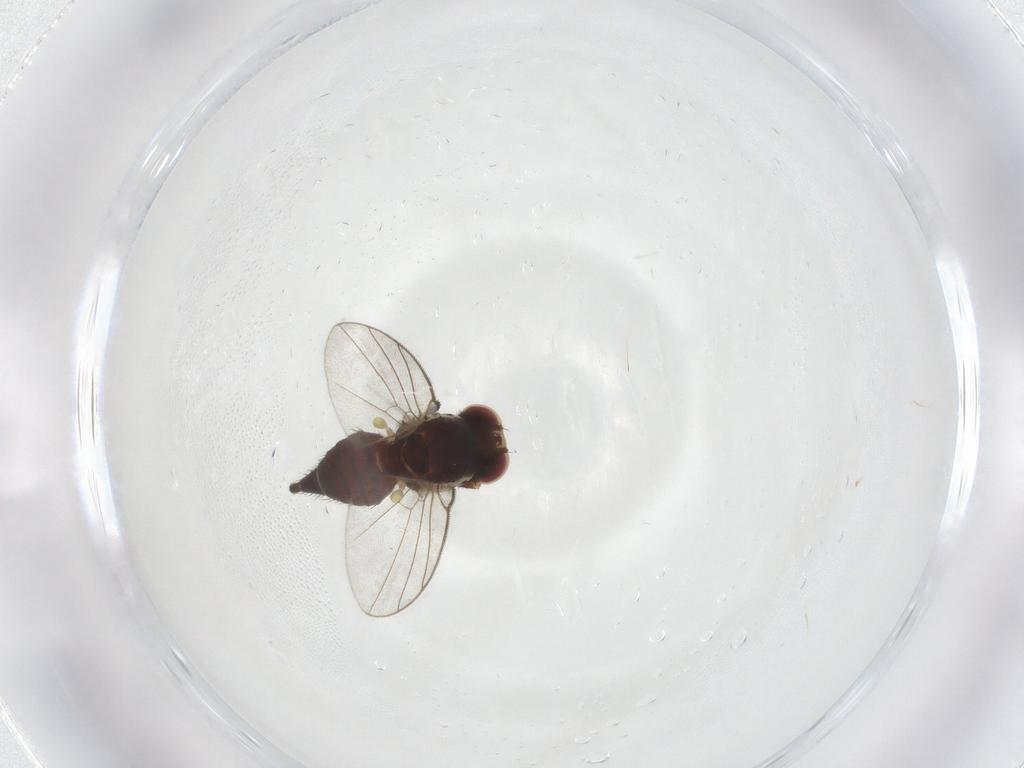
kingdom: Animalia
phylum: Arthropoda
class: Insecta
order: Diptera
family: Agromyzidae
